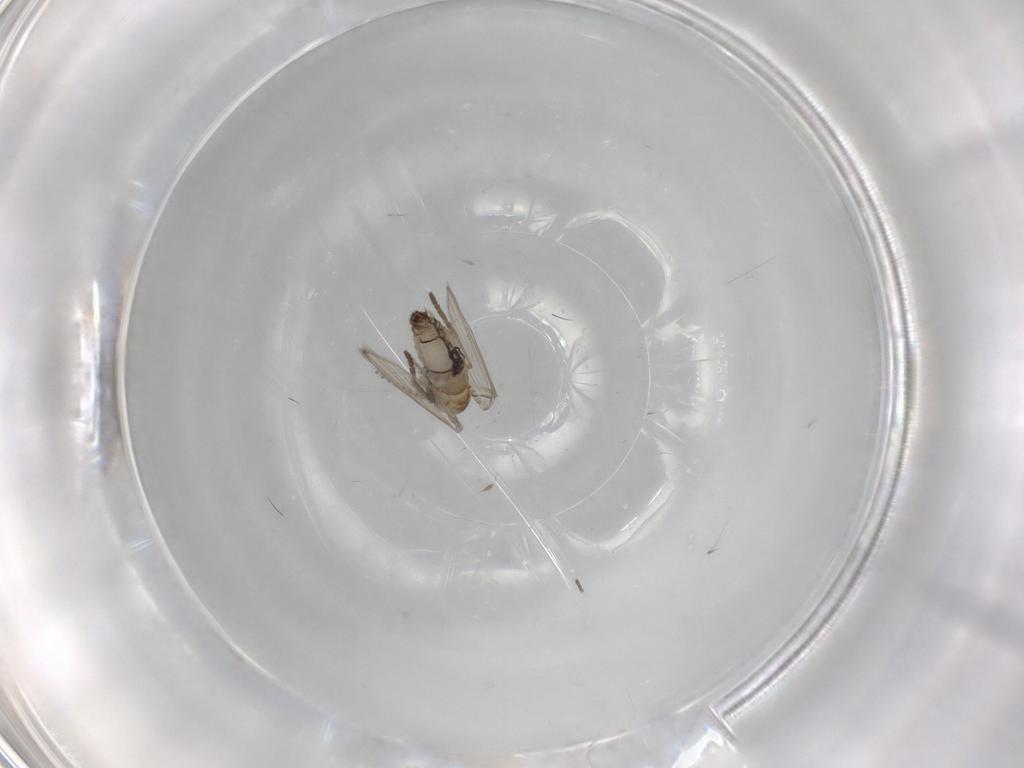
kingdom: Animalia
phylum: Arthropoda
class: Insecta
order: Diptera
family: Psychodidae
